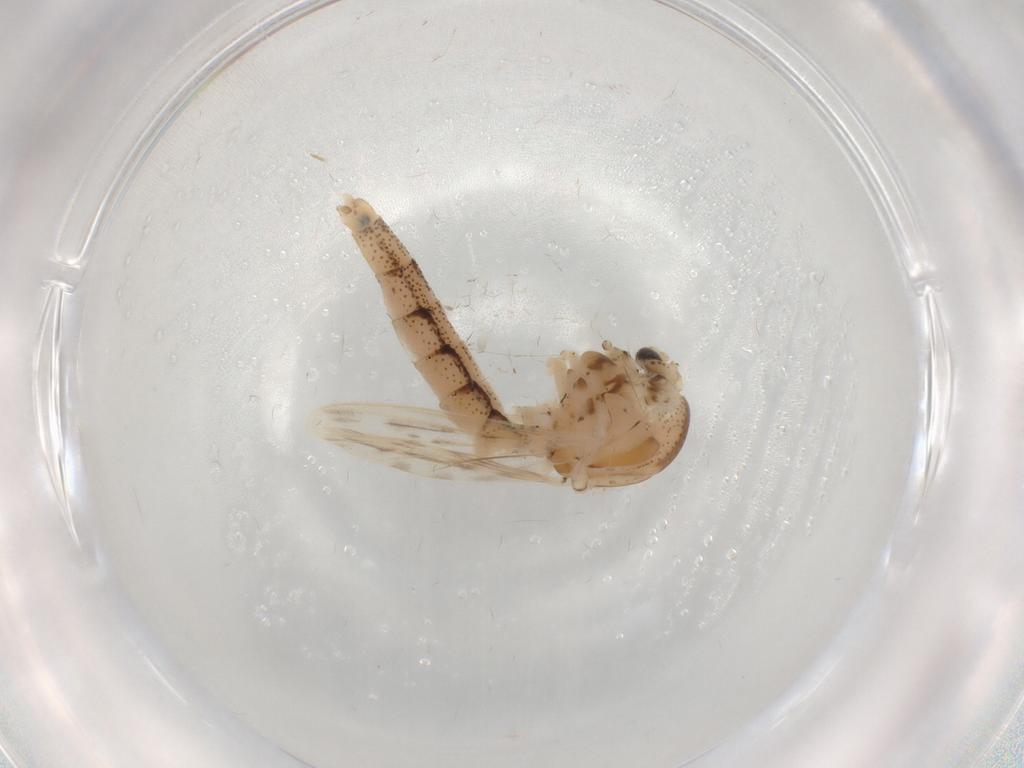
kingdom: Animalia
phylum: Arthropoda
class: Insecta
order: Diptera
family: Chaoboridae
